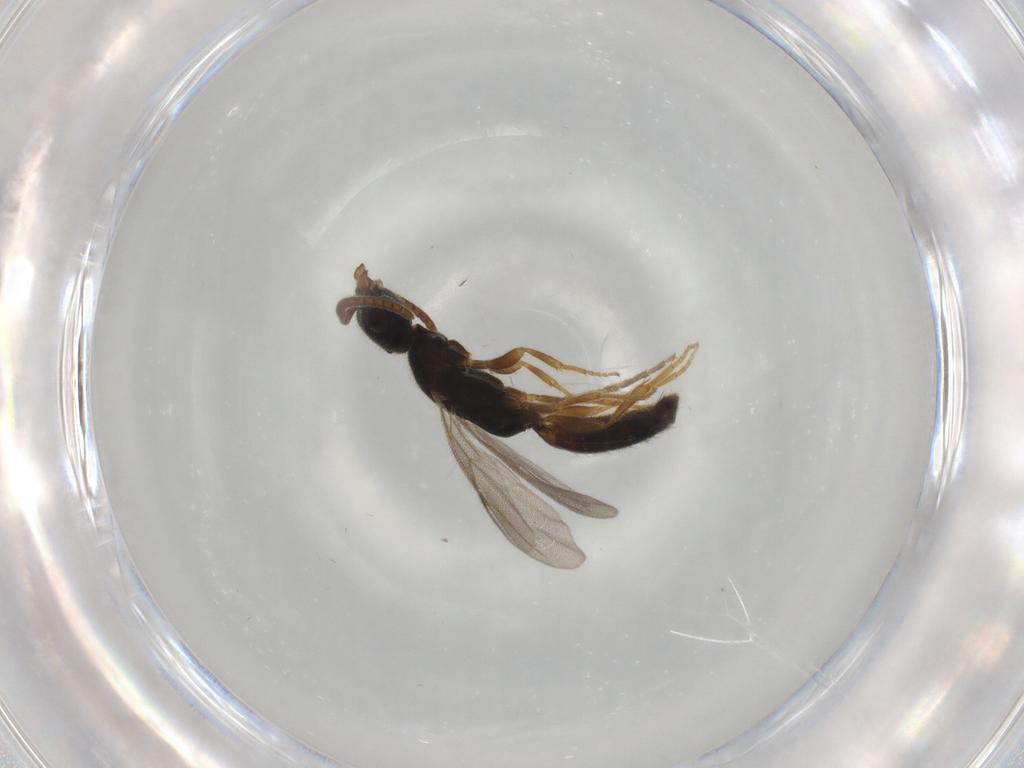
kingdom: Animalia
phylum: Arthropoda
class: Insecta
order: Hymenoptera
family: Bethylidae
